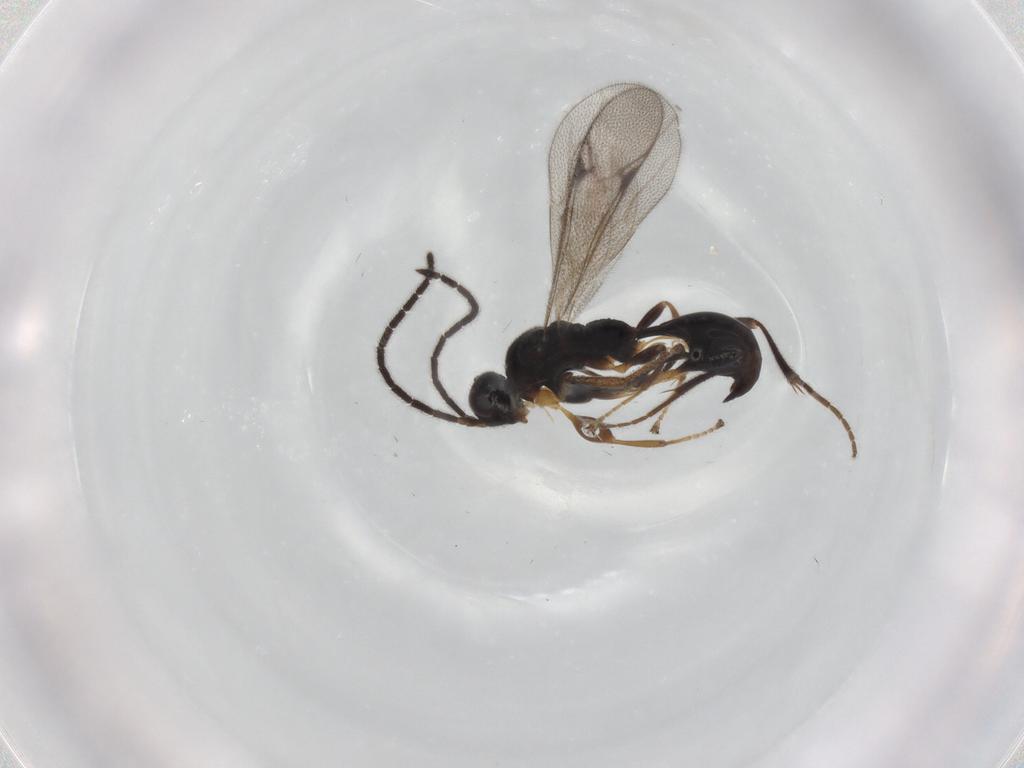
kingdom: Animalia
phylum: Arthropoda
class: Insecta
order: Hymenoptera
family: Proctotrupidae
